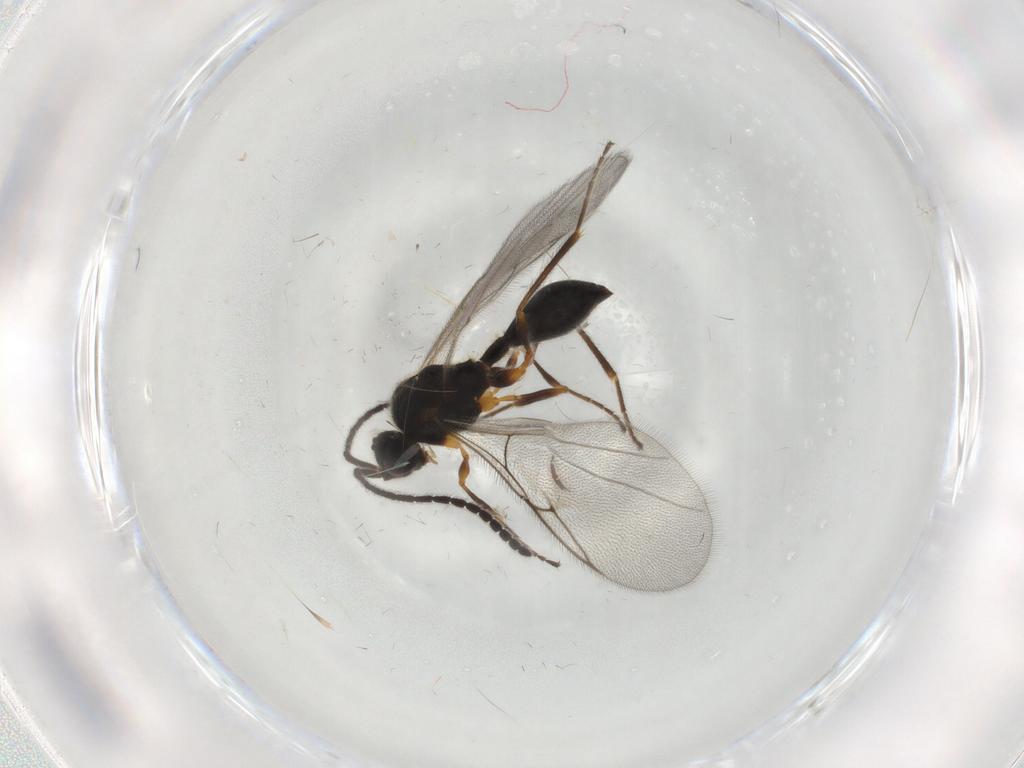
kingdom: Animalia
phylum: Arthropoda
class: Insecta
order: Hymenoptera
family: Diapriidae
